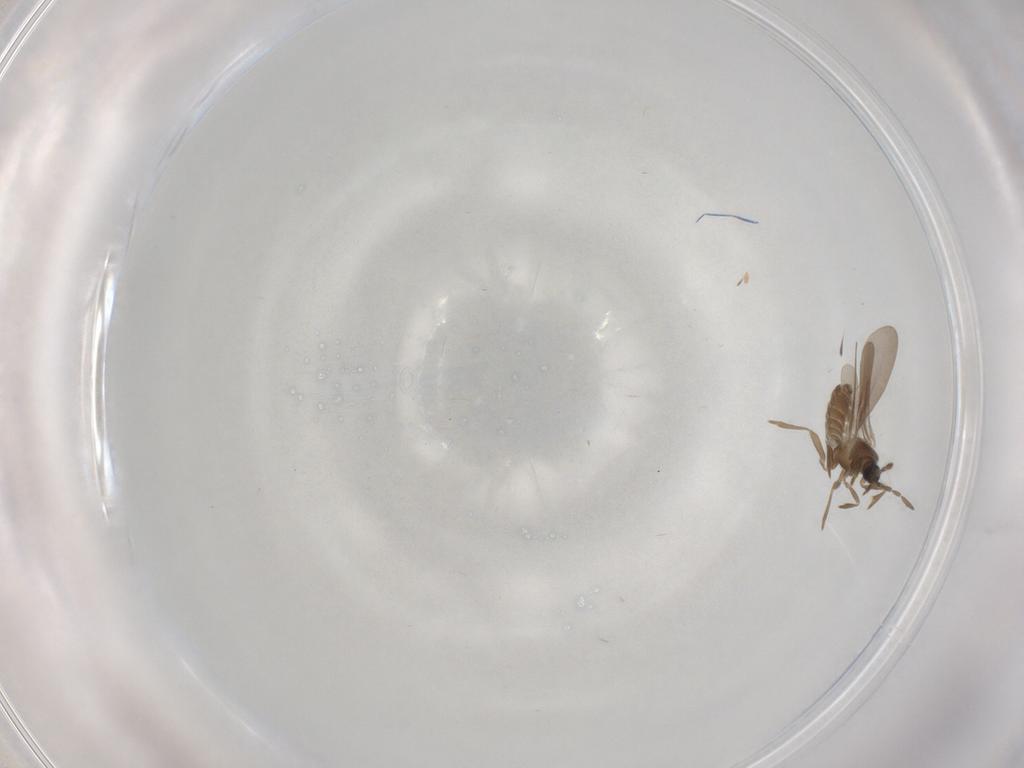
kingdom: Animalia
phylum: Arthropoda
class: Insecta
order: Hemiptera
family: Enicocephalidae
